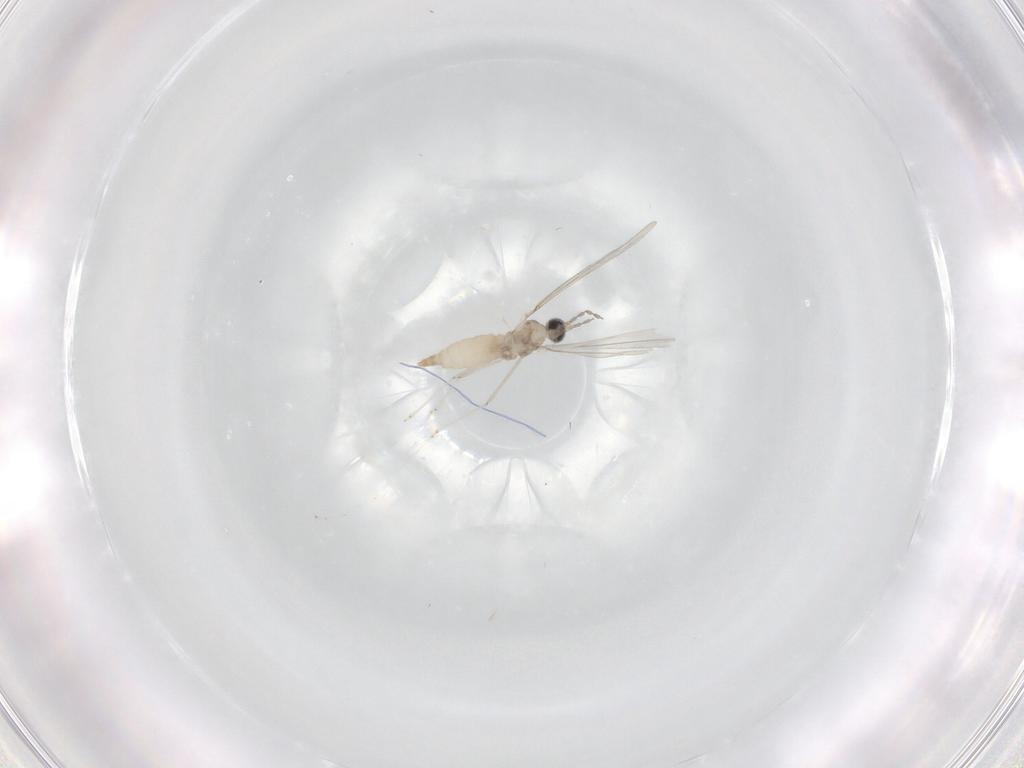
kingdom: Animalia
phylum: Arthropoda
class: Insecta
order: Diptera
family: Cecidomyiidae
